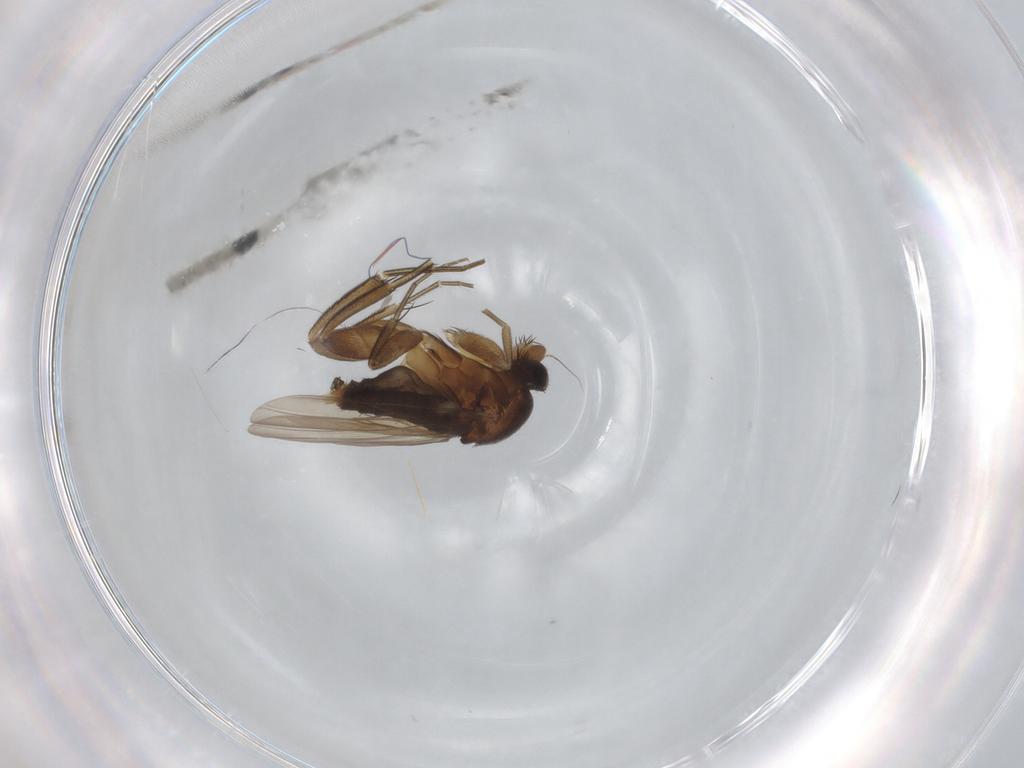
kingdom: Animalia
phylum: Arthropoda
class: Insecta
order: Diptera
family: Phoridae
